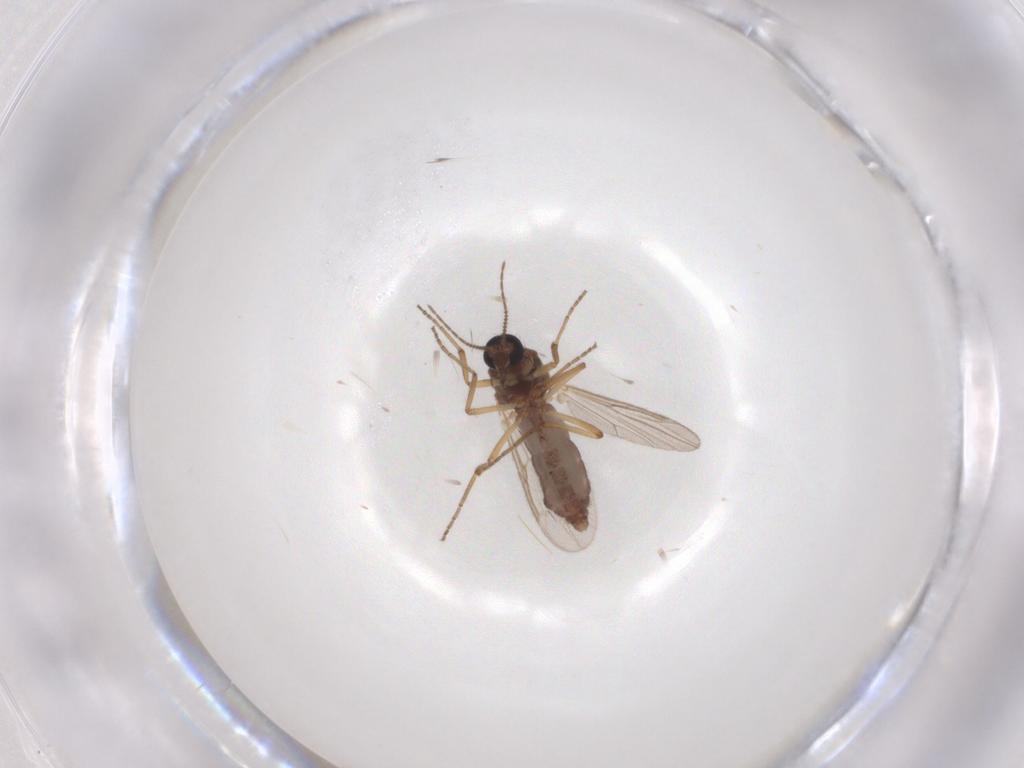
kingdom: Animalia
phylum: Arthropoda
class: Insecta
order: Diptera
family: Ceratopogonidae
